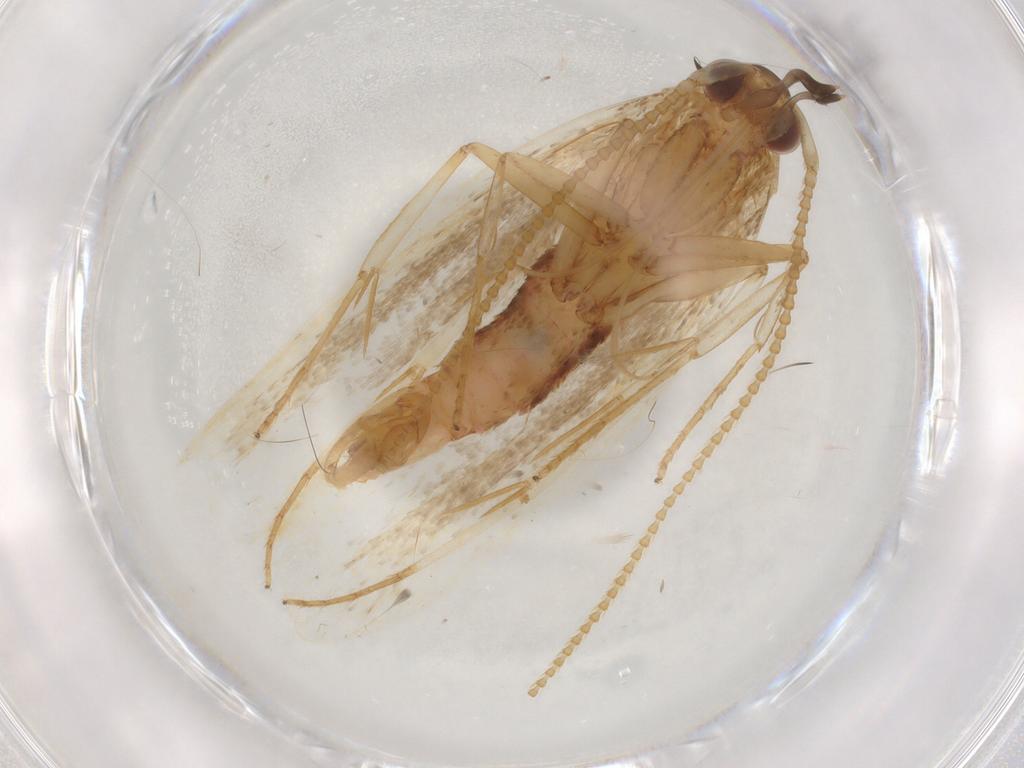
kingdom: Animalia
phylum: Arthropoda
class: Insecta
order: Lepidoptera
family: Lecithoceridae
